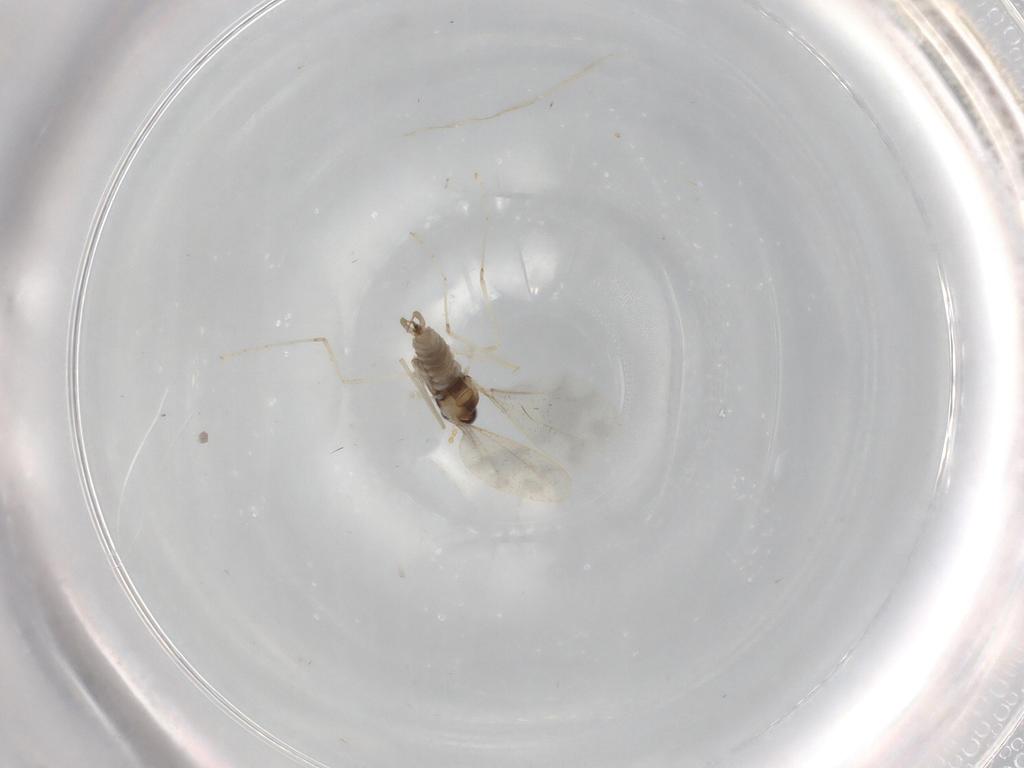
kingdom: Animalia
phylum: Arthropoda
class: Insecta
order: Diptera
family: Cecidomyiidae
